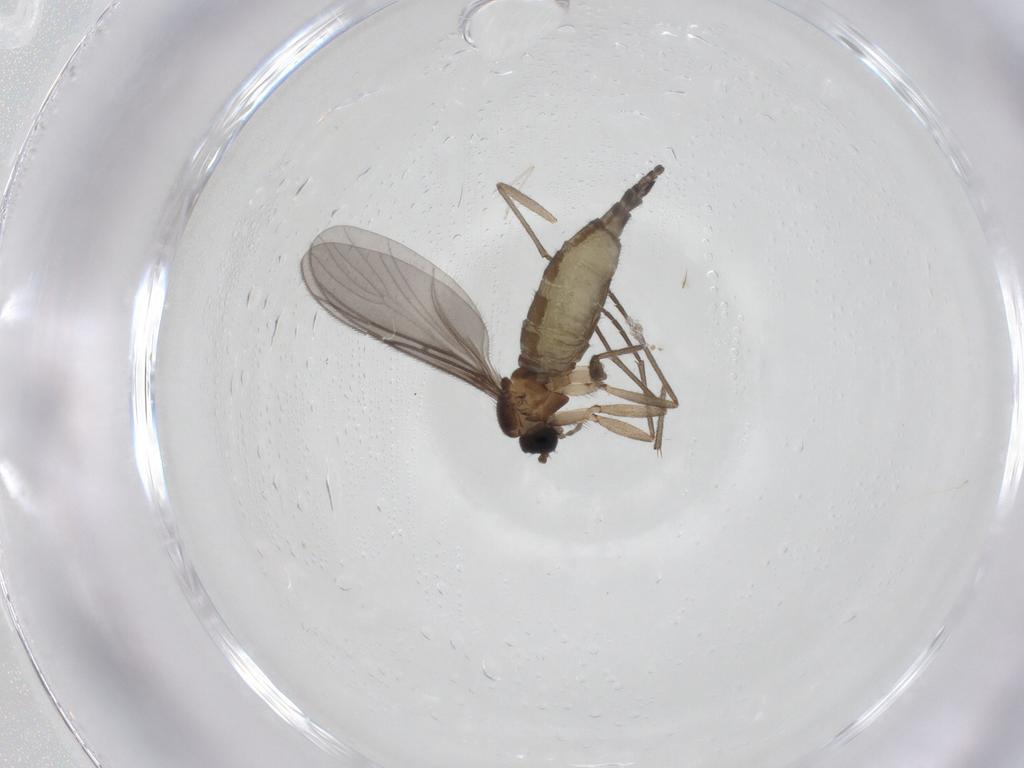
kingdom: Animalia
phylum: Arthropoda
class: Insecta
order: Diptera
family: Sciaridae
